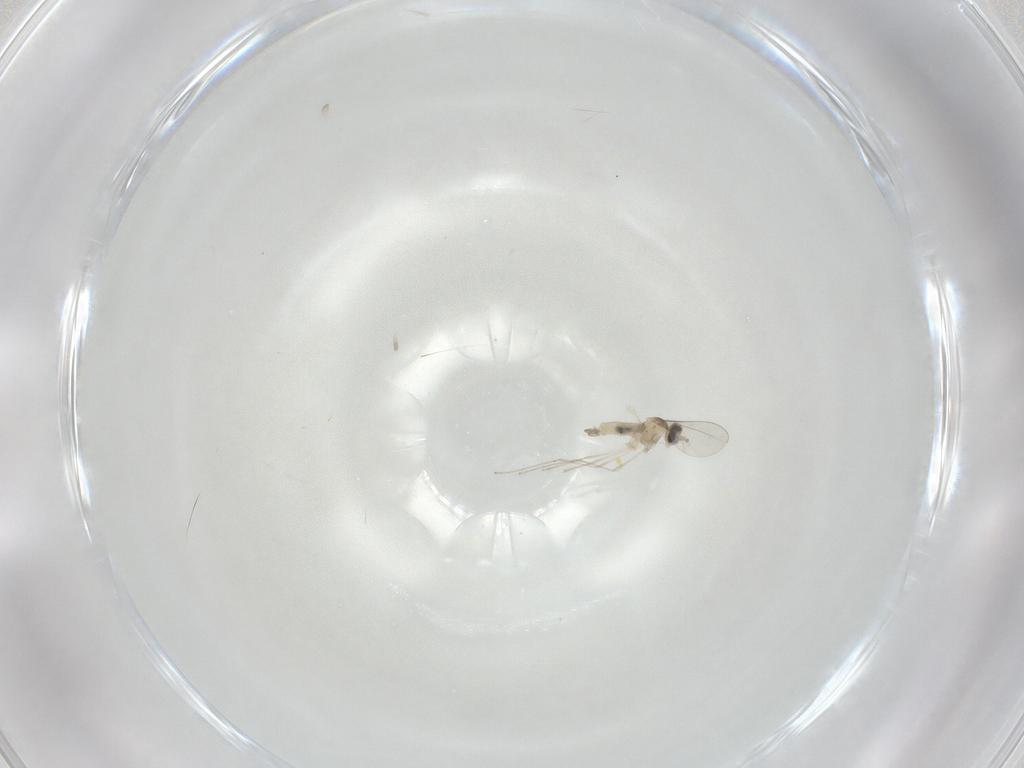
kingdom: Animalia
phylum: Arthropoda
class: Insecta
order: Diptera
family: Cecidomyiidae
